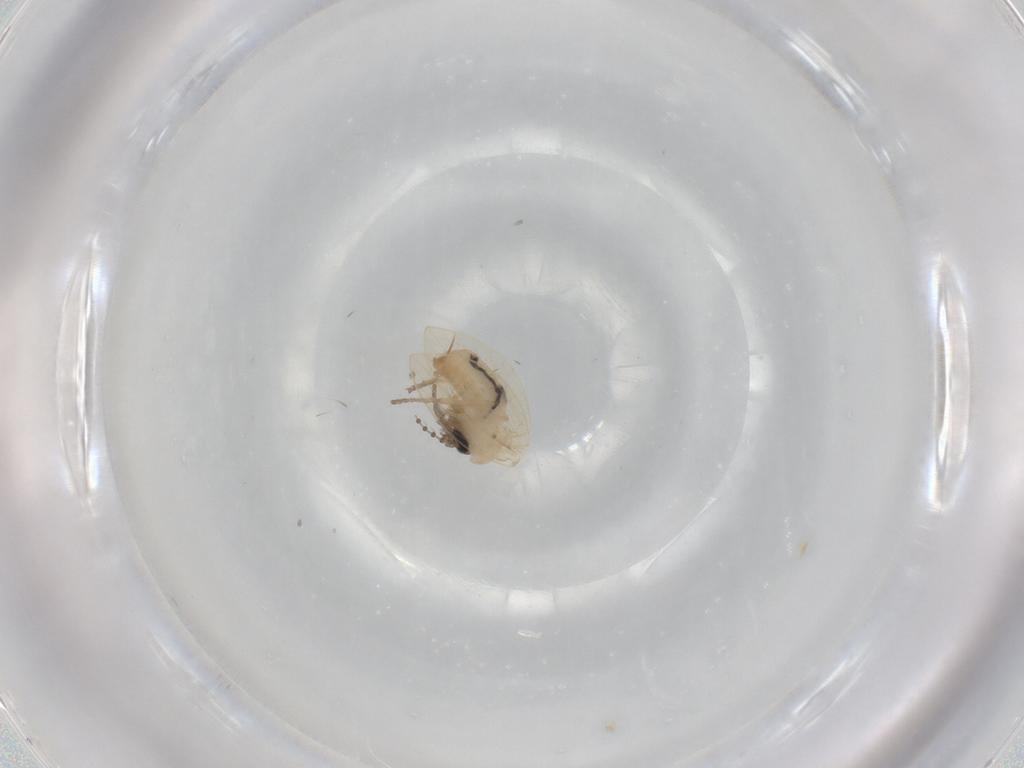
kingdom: Animalia
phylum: Arthropoda
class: Insecta
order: Diptera
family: Psychodidae
